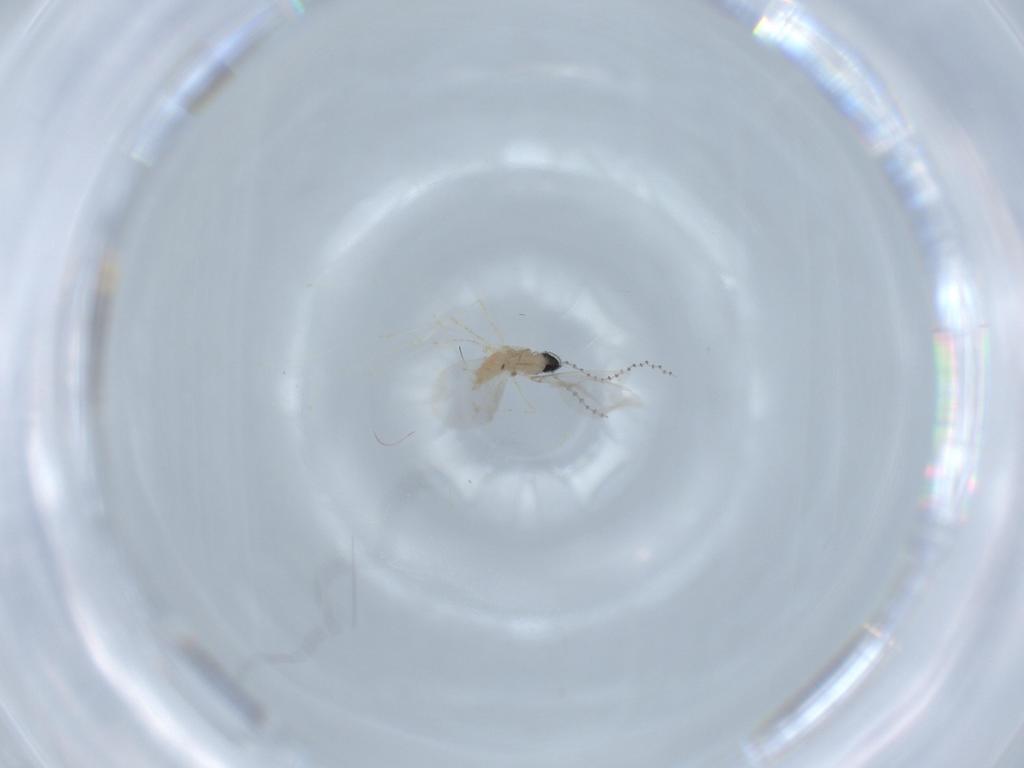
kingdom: Animalia
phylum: Arthropoda
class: Insecta
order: Diptera
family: Cecidomyiidae
